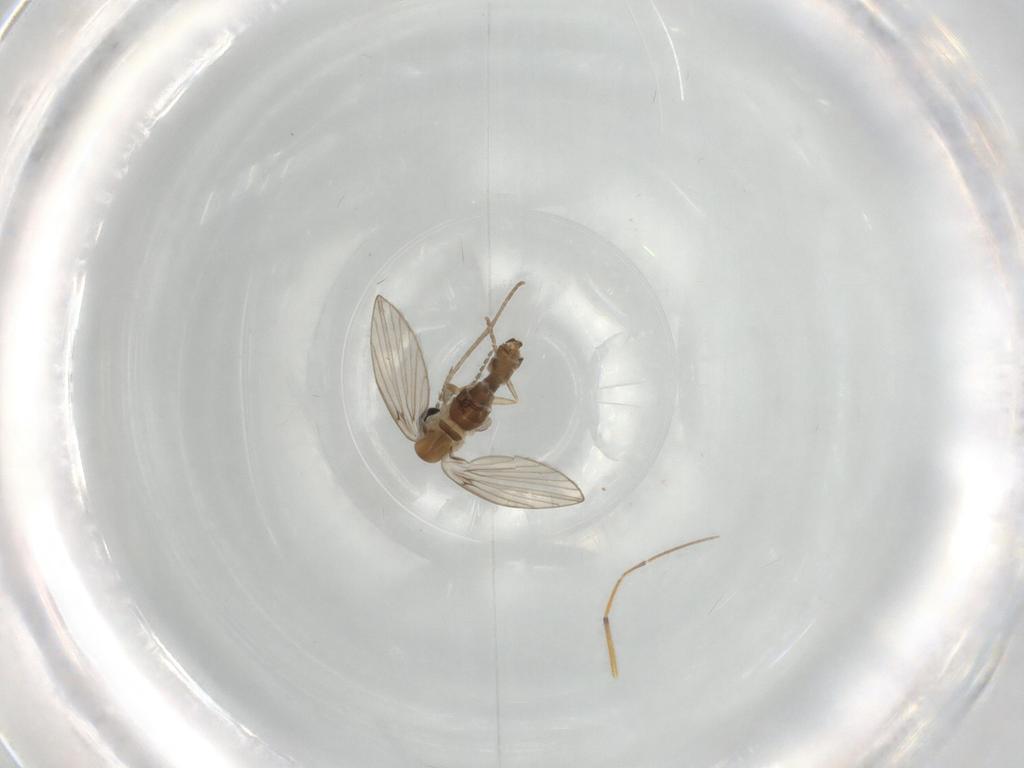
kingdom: Animalia
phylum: Arthropoda
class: Insecta
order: Diptera
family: Phoridae
